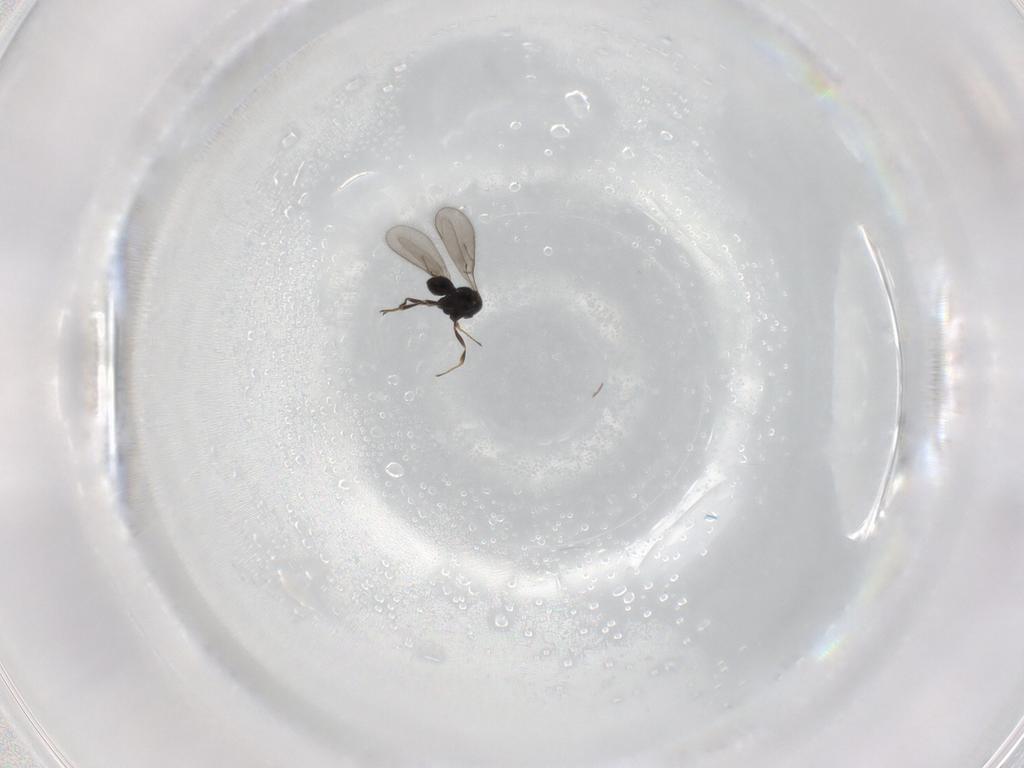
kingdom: Animalia
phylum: Arthropoda
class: Insecta
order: Hymenoptera
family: Scelionidae
